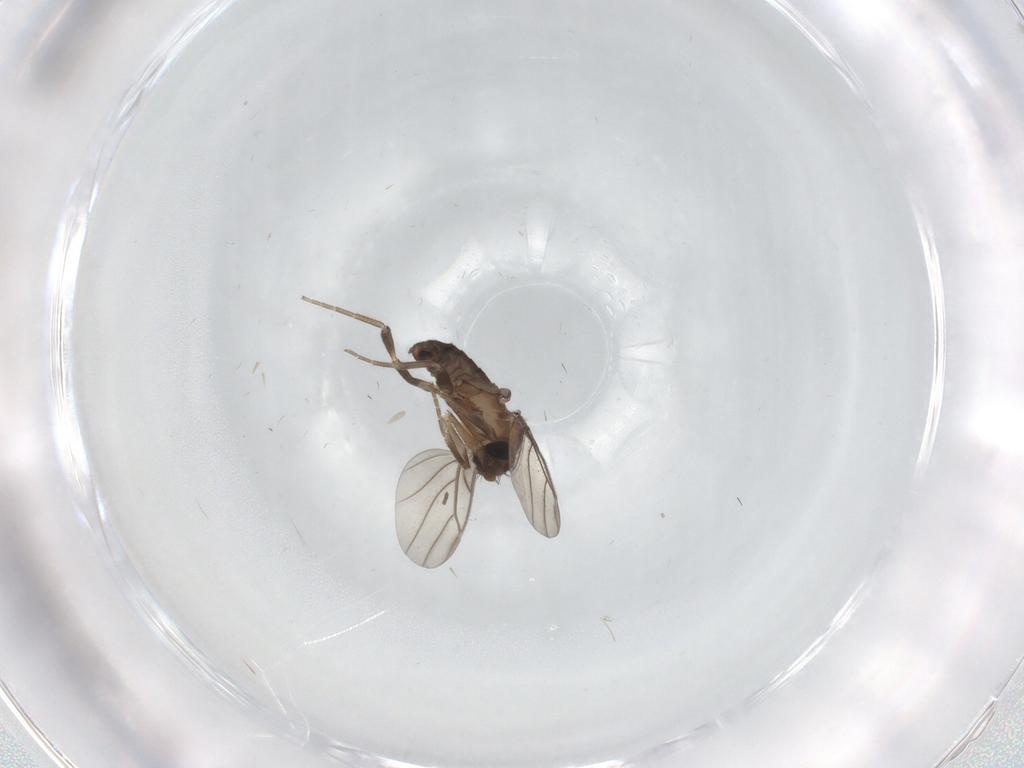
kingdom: Animalia
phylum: Arthropoda
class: Insecta
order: Diptera
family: Phoridae
